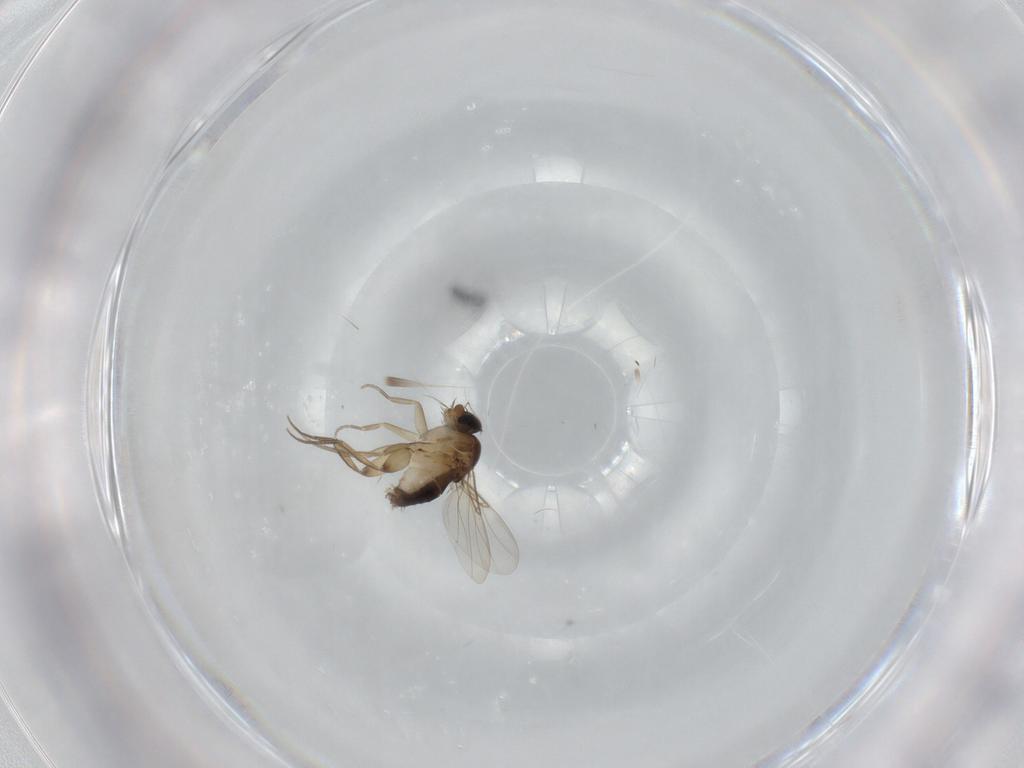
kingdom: Animalia
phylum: Arthropoda
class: Insecta
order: Diptera
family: Phoridae
